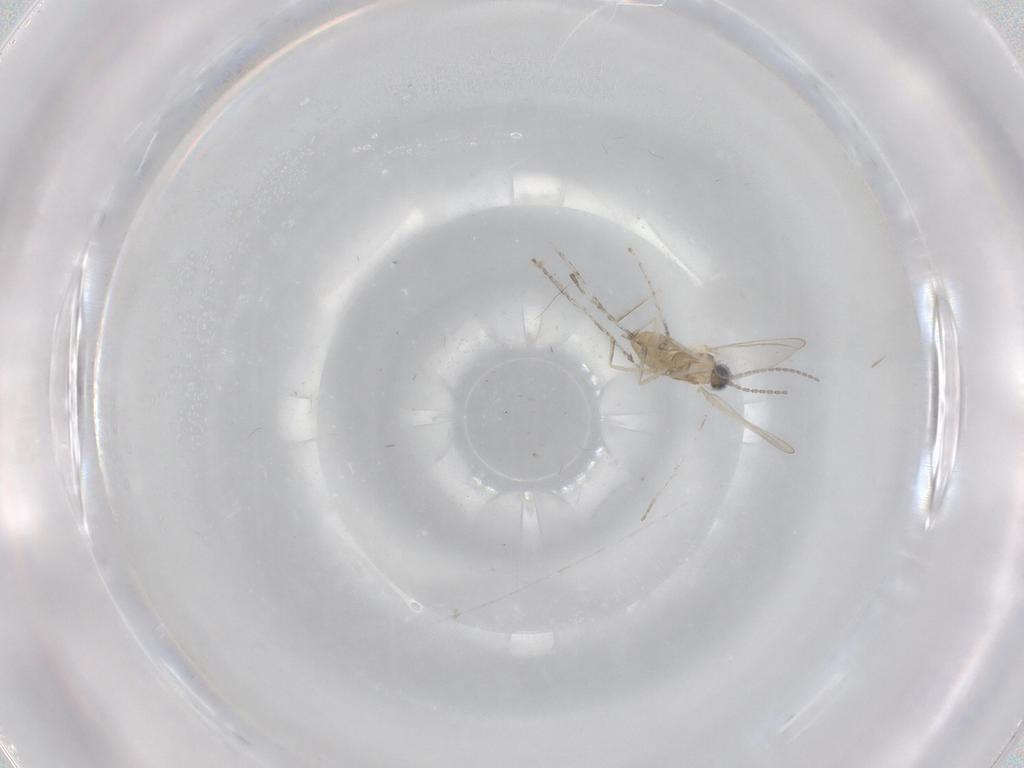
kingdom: Animalia
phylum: Arthropoda
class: Insecta
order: Diptera
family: Cecidomyiidae
